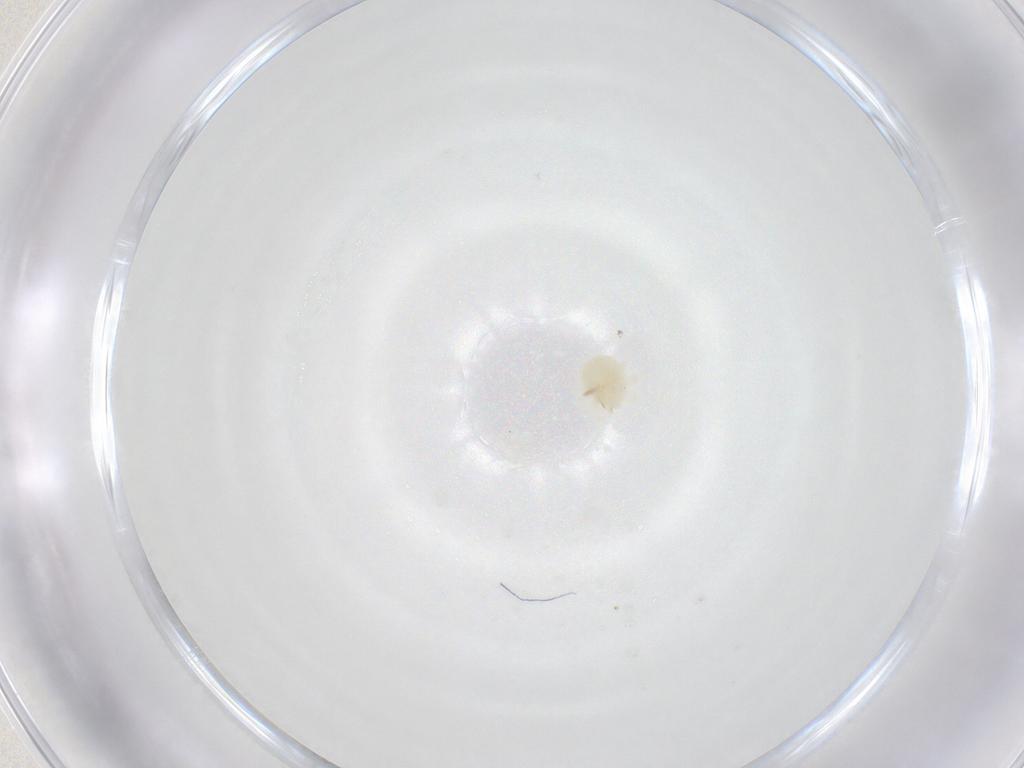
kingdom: Animalia
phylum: Arthropoda
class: Arachnida
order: Trombidiformes
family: Anystidae
